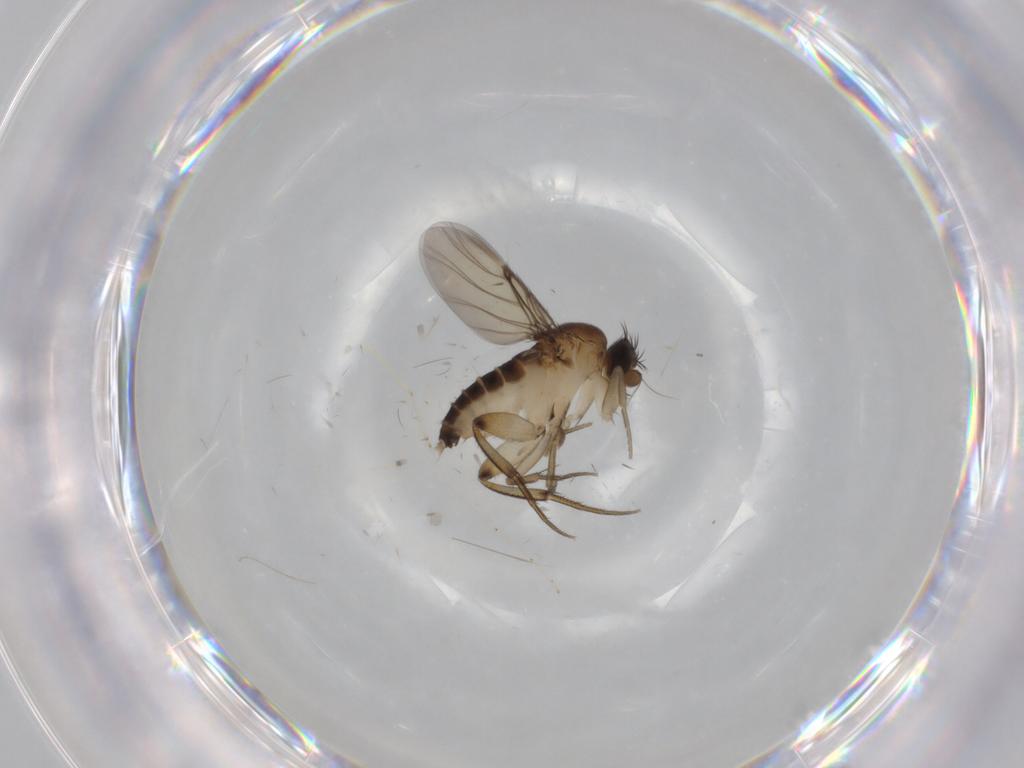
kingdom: Animalia
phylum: Arthropoda
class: Insecta
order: Diptera
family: Phoridae
